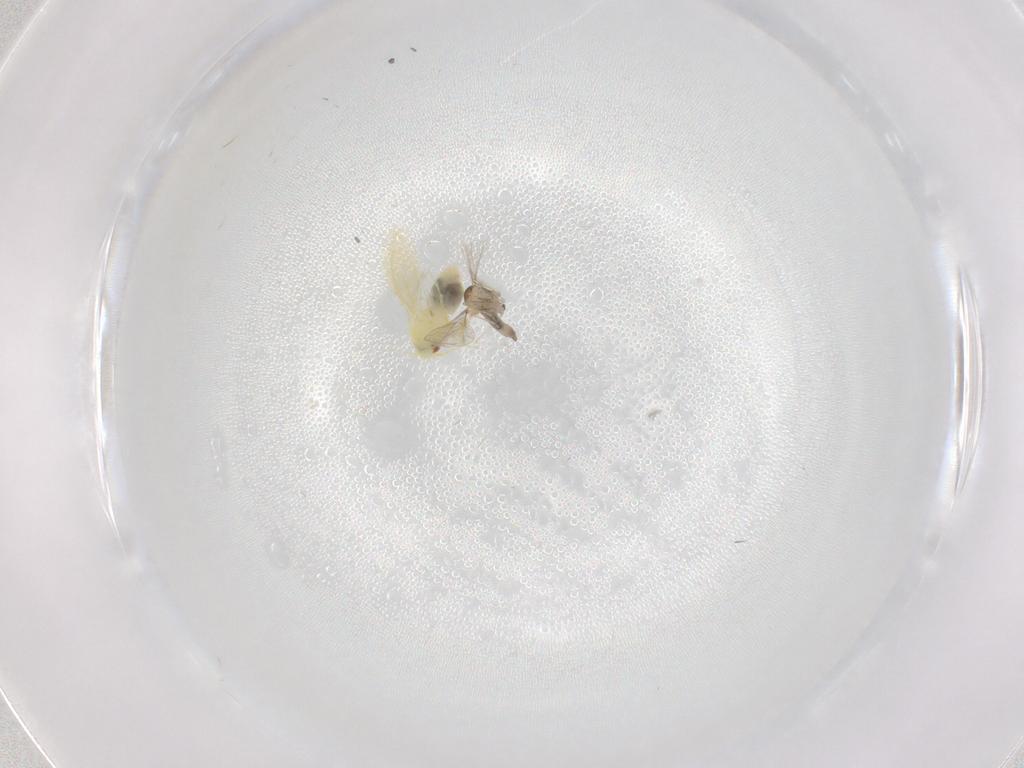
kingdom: Animalia
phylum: Arthropoda
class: Insecta
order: Hemiptera
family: Aleyrodidae
